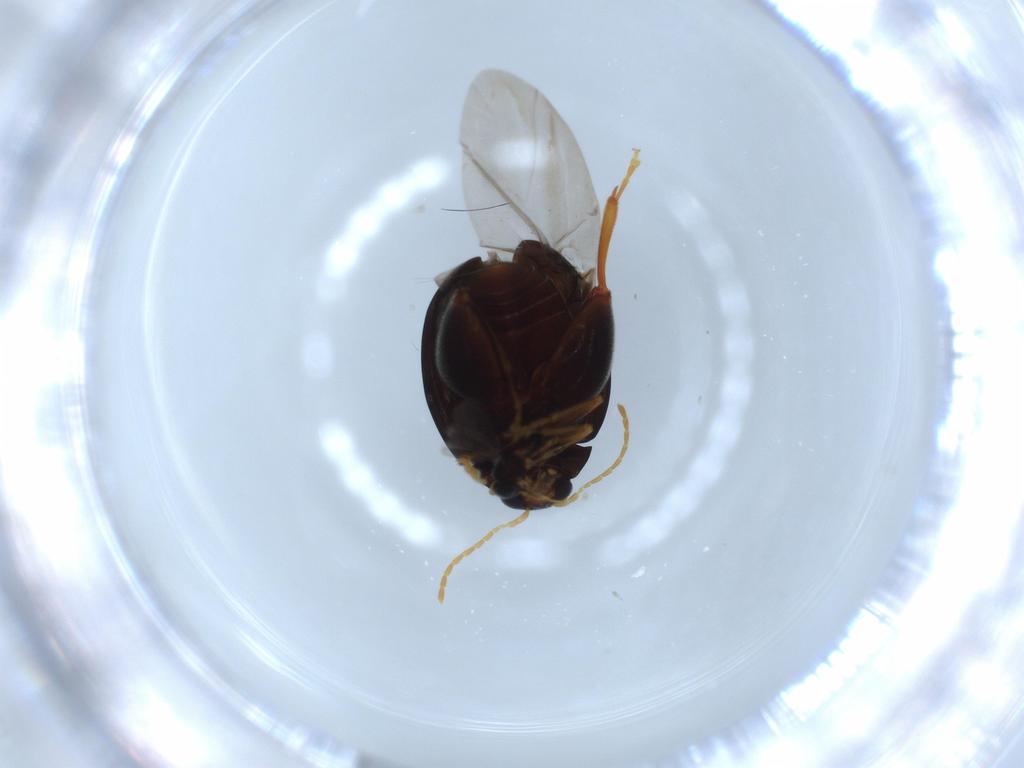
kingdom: Animalia
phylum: Arthropoda
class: Insecta
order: Coleoptera
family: Chrysomelidae
